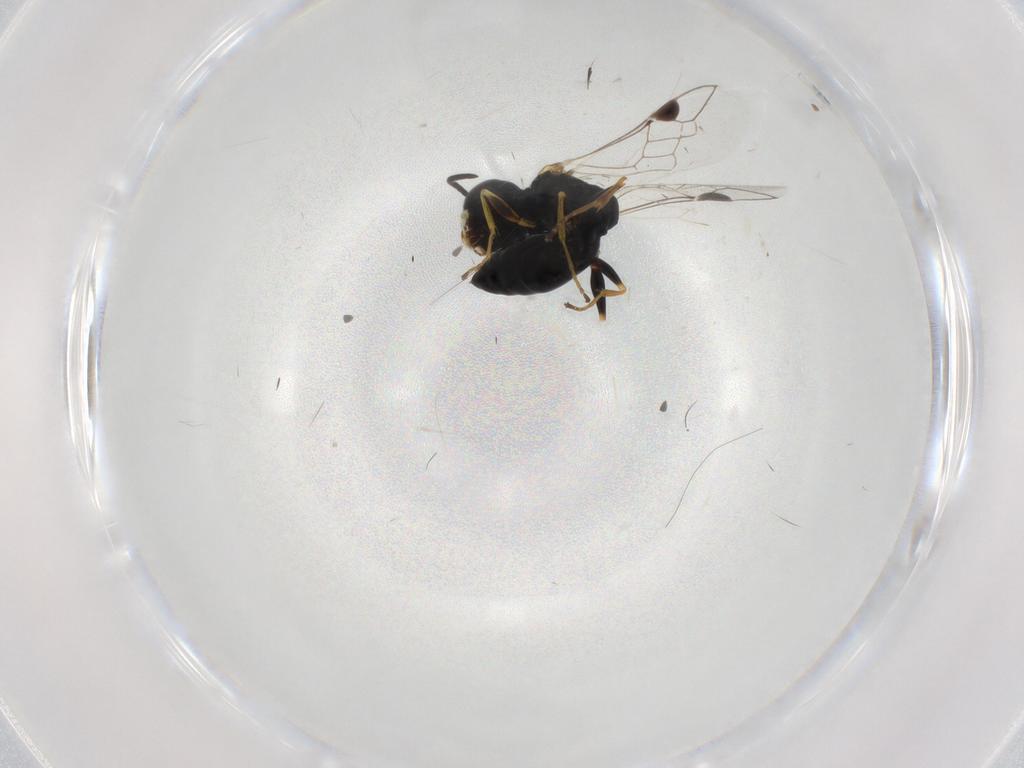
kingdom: Animalia
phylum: Arthropoda
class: Insecta
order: Hymenoptera
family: Crabronidae
